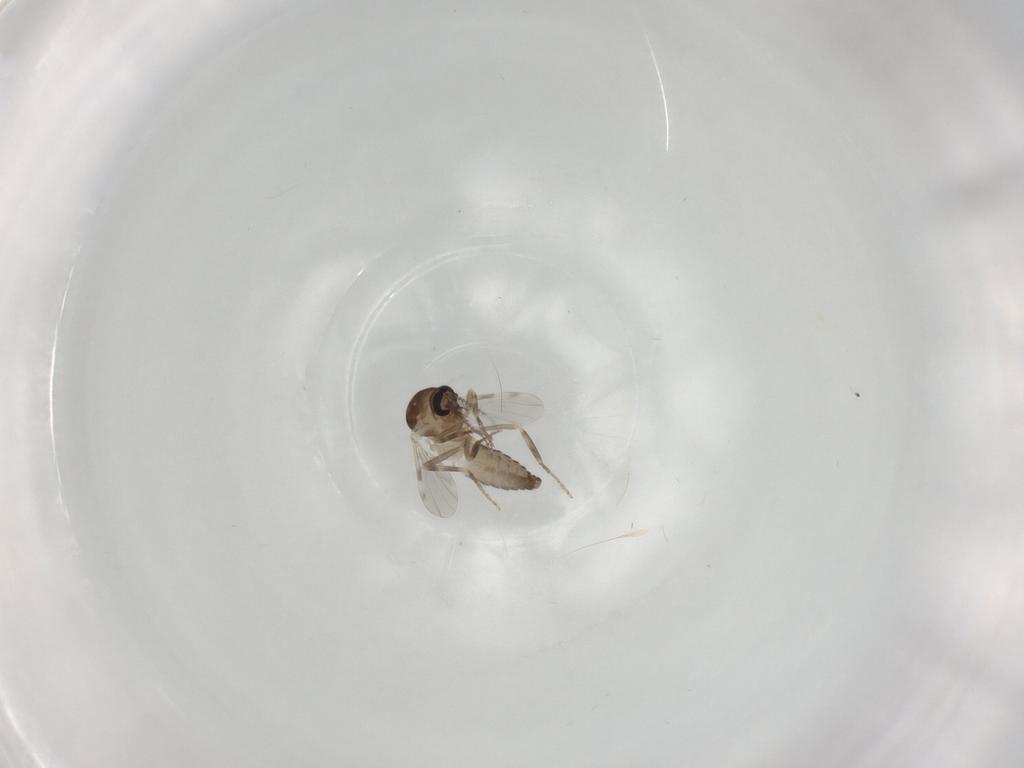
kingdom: Animalia
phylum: Arthropoda
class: Insecta
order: Diptera
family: Ceratopogonidae
